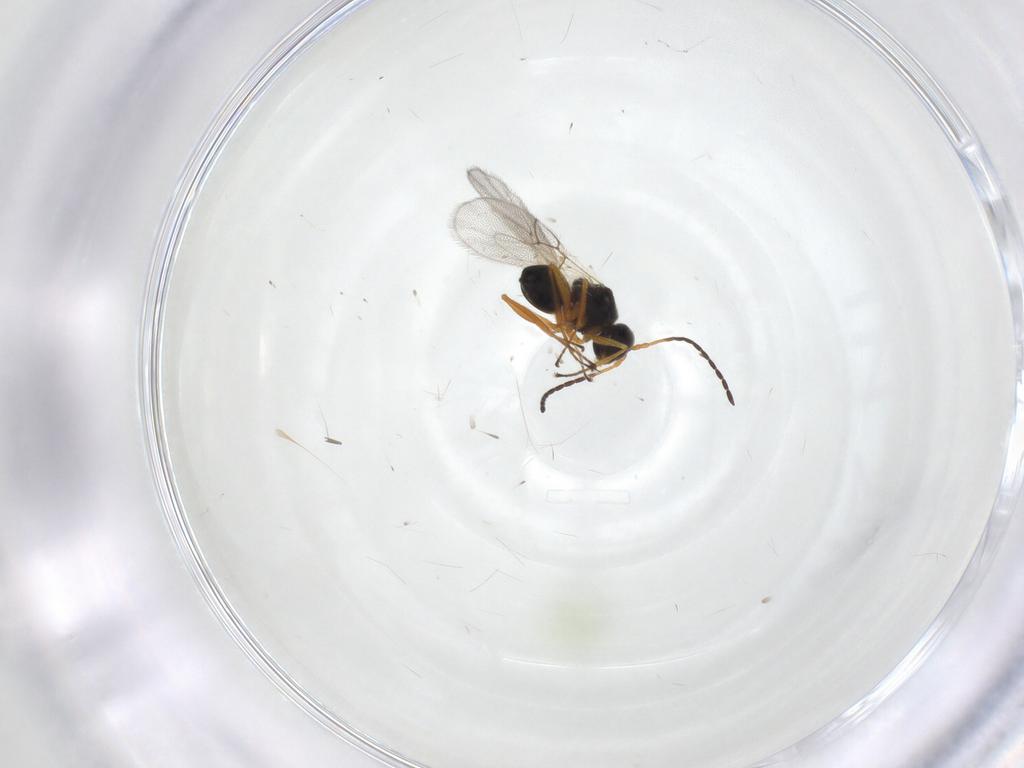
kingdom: Animalia
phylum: Arthropoda
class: Insecta
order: Hymenoptera
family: Figitidae
